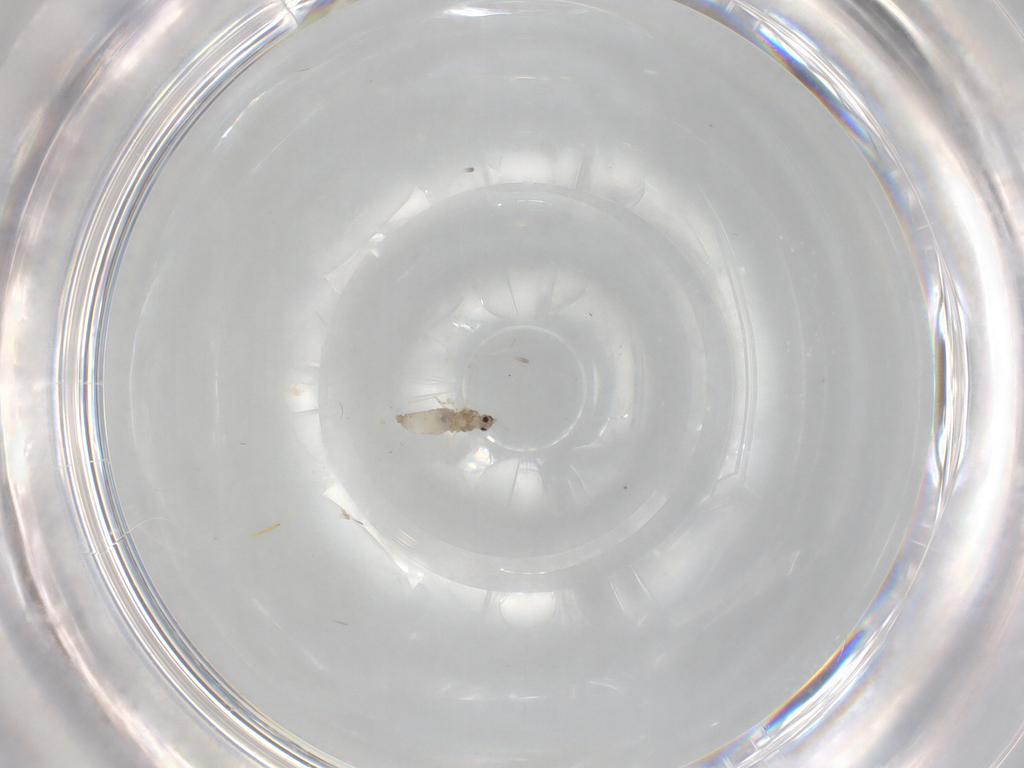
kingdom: Animalia
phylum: Arthropoda
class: Insecta
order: Diptera
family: Cecidomyiidae
